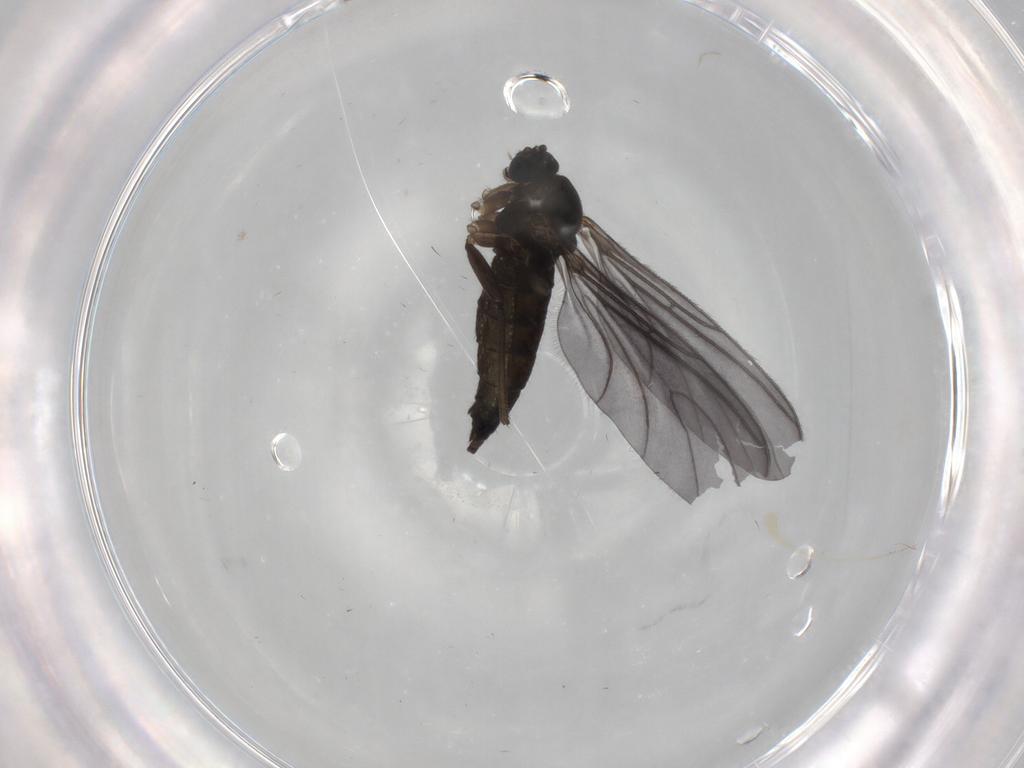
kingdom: Animalia
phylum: Arthropoda
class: Insecta
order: Diptera
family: Sciaridae
